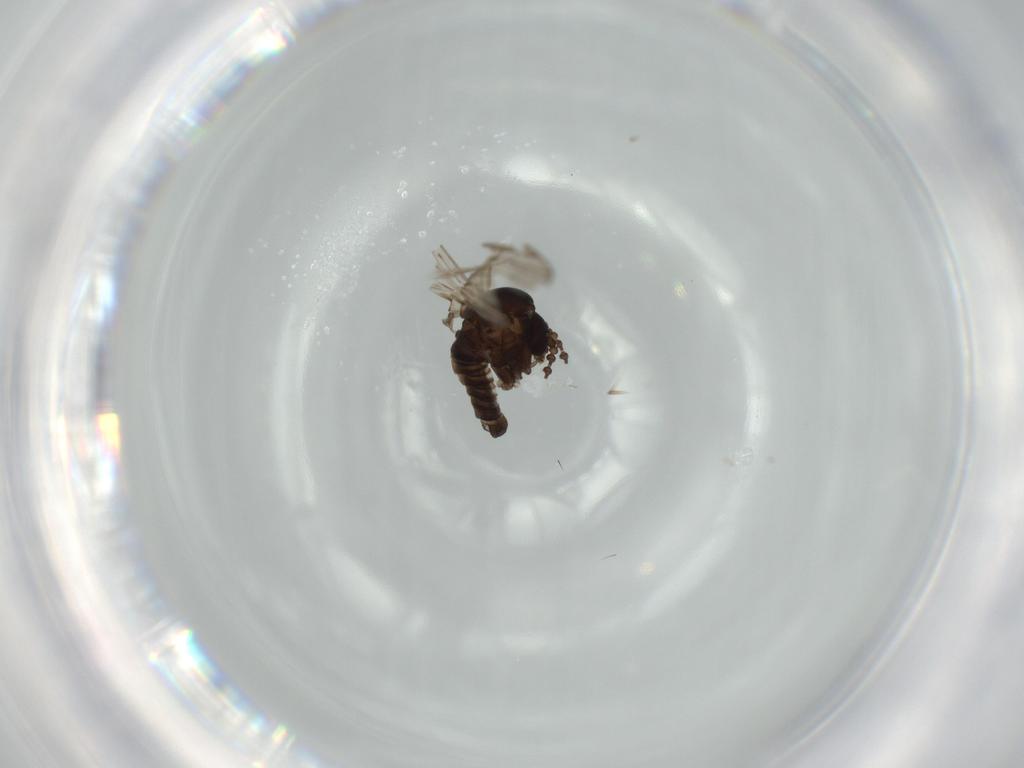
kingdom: Animalia
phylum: Arthropoda
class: Insecta
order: Diptera
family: Psychodidae
